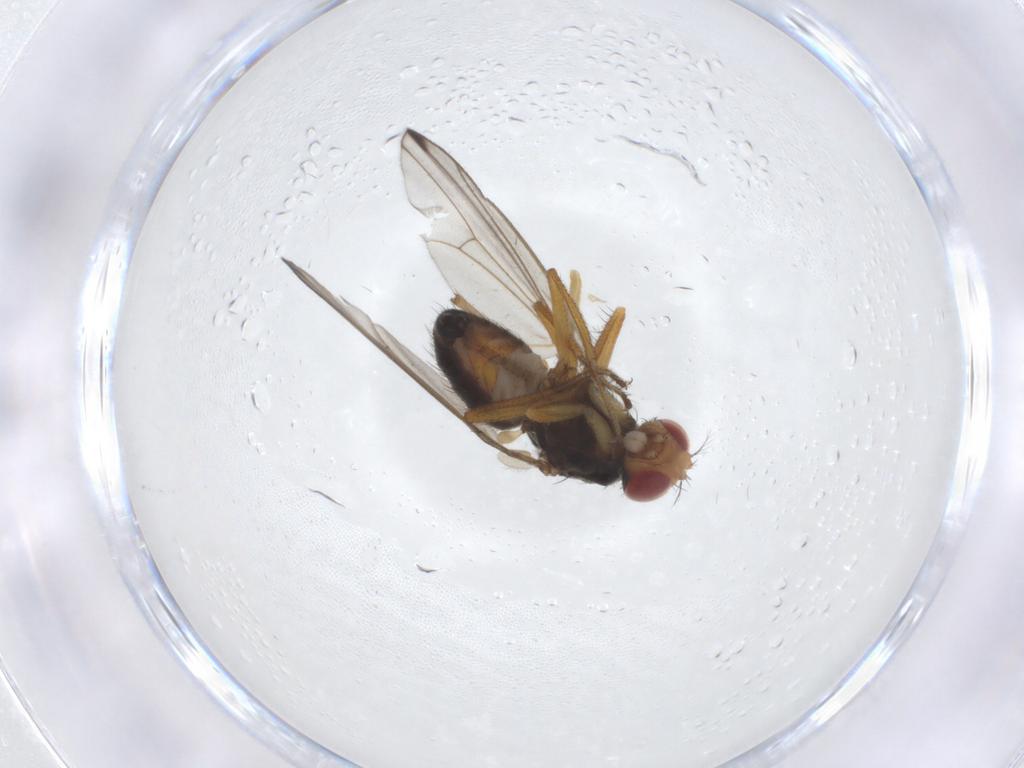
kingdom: Animalia
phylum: Arthropoda
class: Insecta
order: Diptera
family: Drosophilidae
